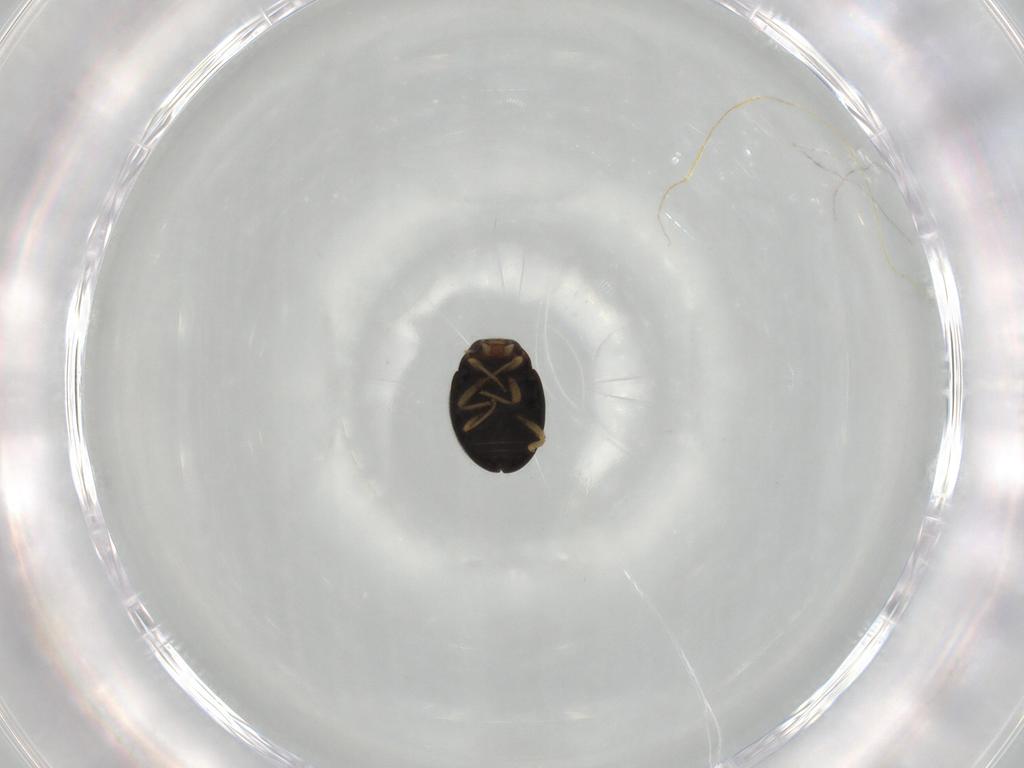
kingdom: Animalia
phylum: Arthropoda
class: Insecta
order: Coleoptera
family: Coccinellidae
